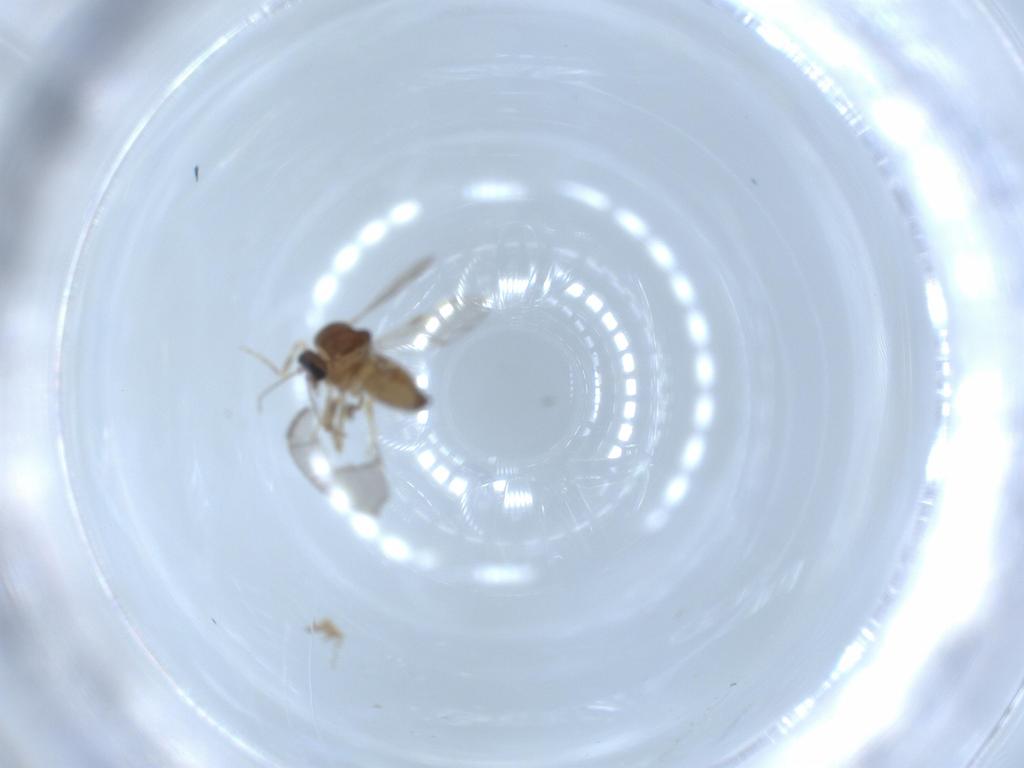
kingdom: Animalia
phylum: Arthropoda
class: Insecta
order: Diptera
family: Ceratopogonidae
